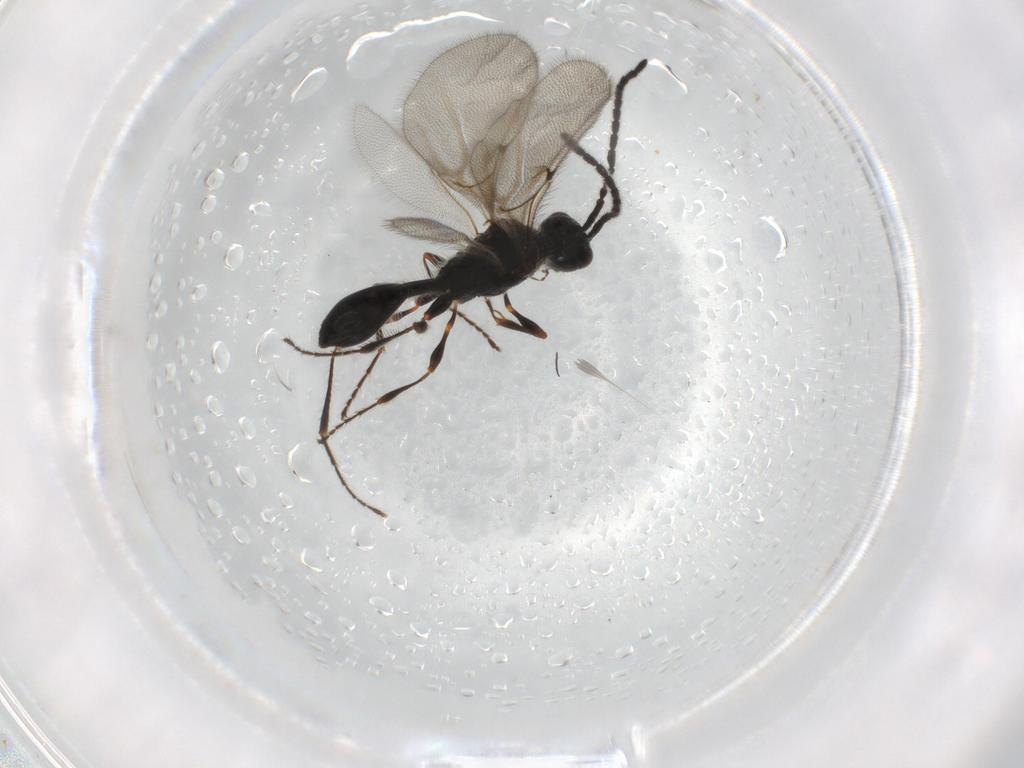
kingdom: Animalia
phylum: Arthropoda
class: Insecta
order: Hymenoptera
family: Diapriidae
